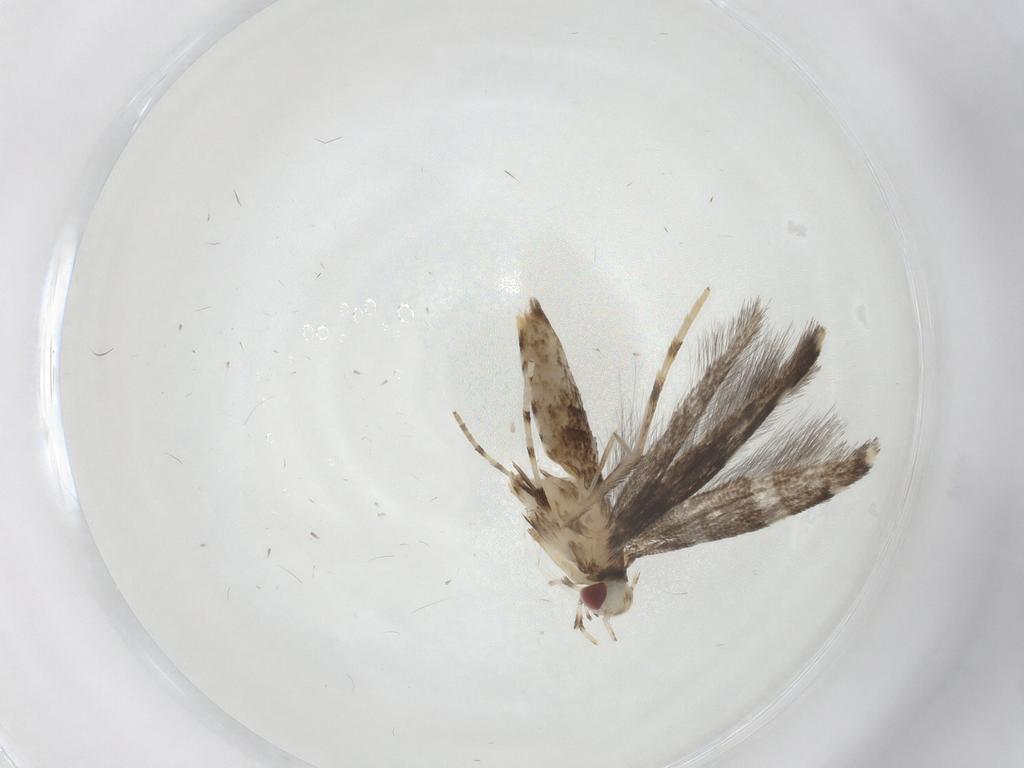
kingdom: Animalia
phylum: Arthropoda
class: Insecta
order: Lepidoptera
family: Gracillariidae
